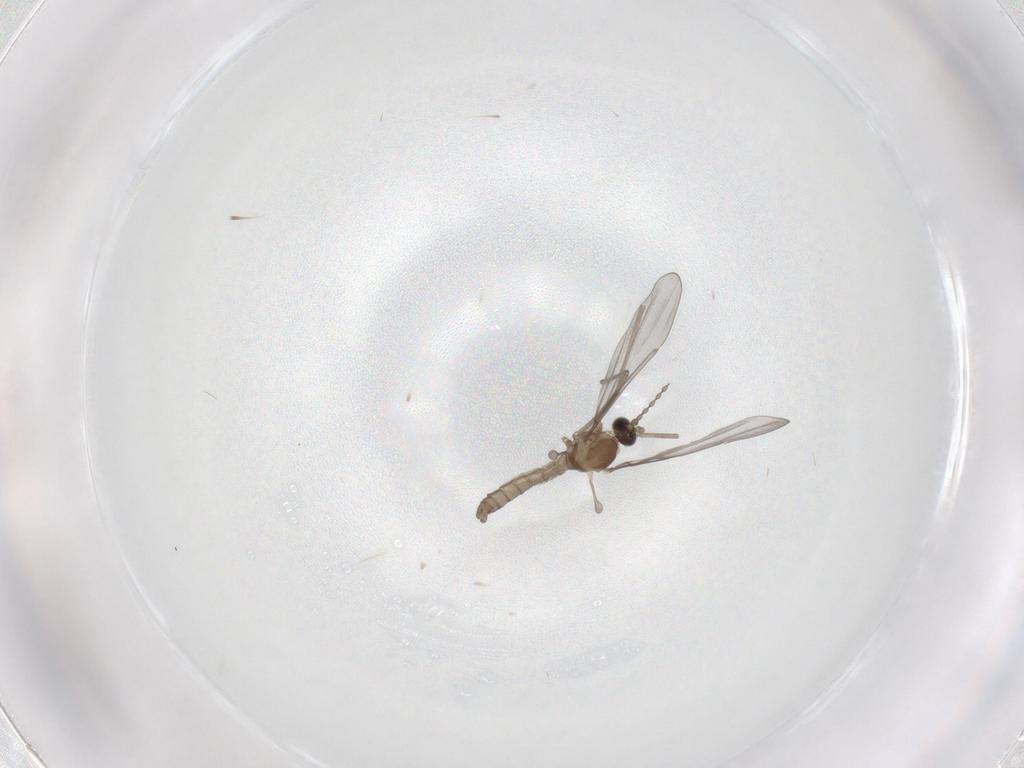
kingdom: Animalia
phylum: Arthropoda
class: Insecta
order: Diptera
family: Cecidomyiidae
